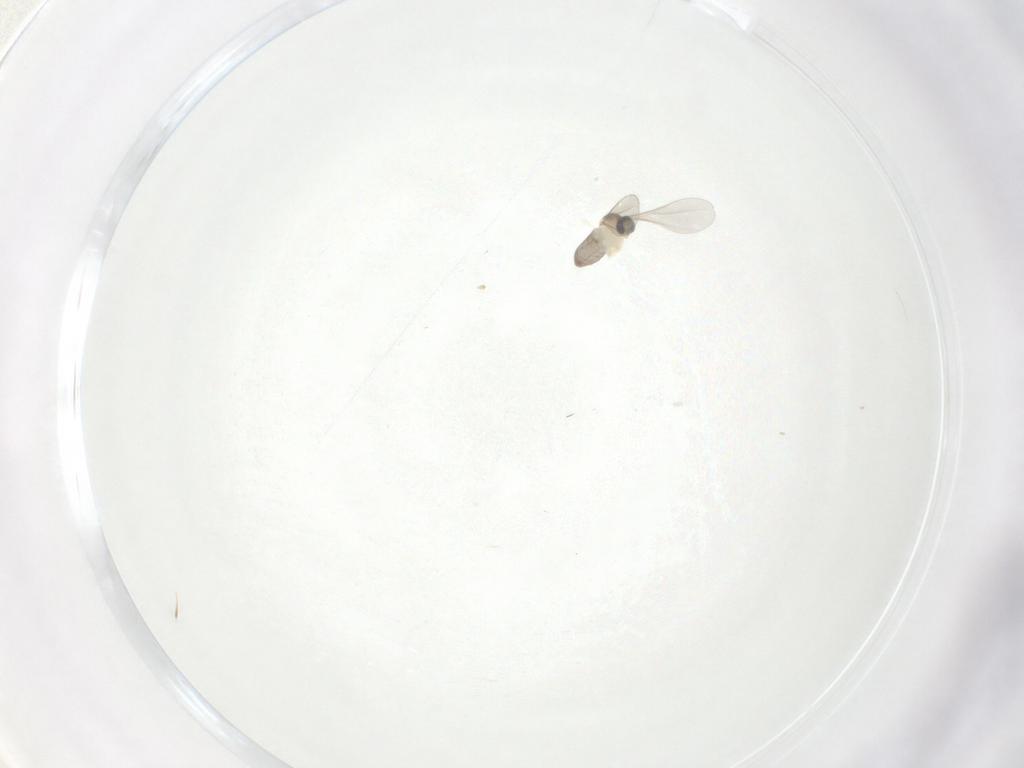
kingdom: Animalia
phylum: Arthropoda
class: Insecta
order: Diptera
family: Cecidomyiidae
